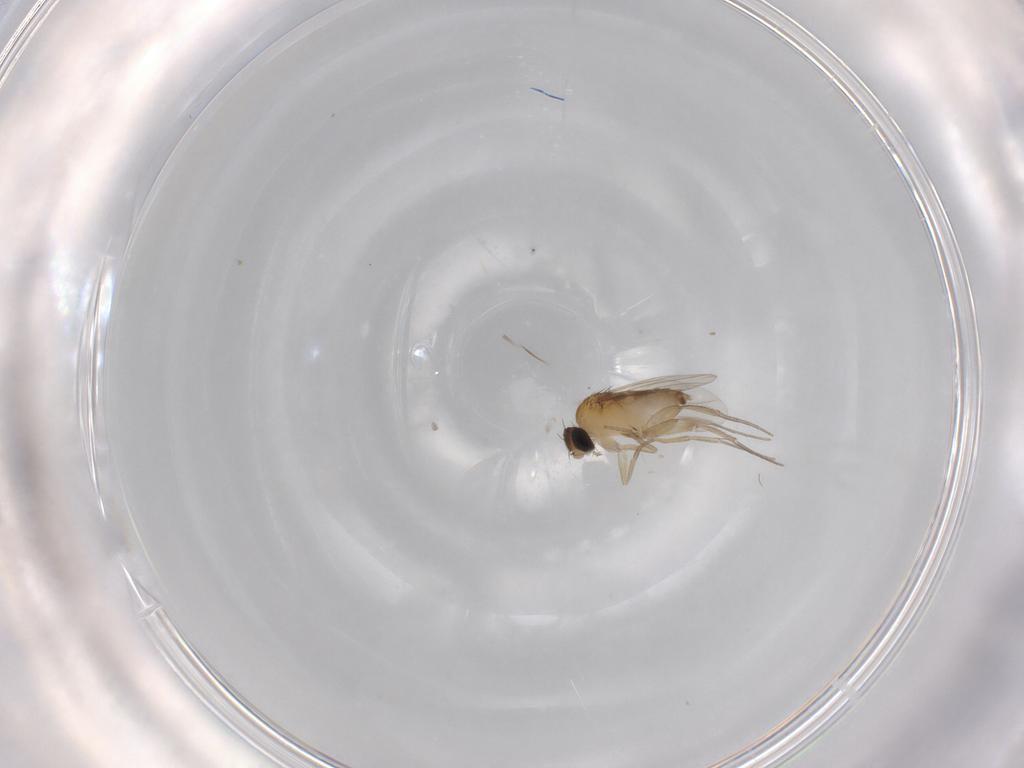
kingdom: Animalia
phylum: Arthropoda
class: Insecta
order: Diptera
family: Phoridae
